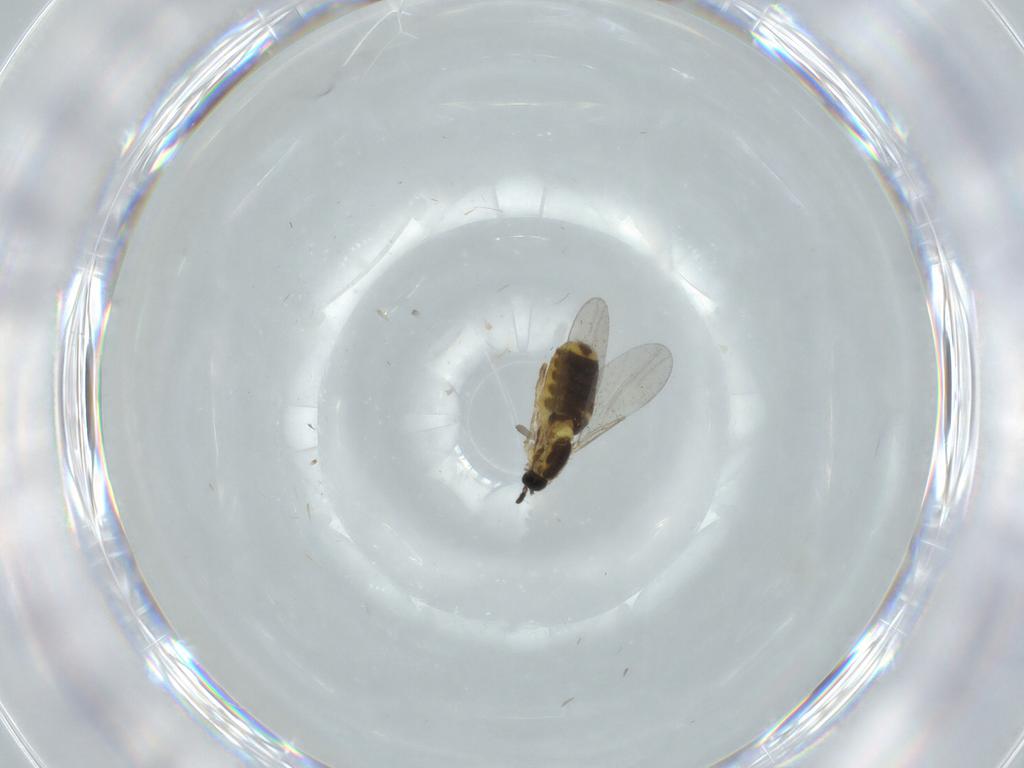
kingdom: Animalia
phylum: Arthropoda
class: Insecta
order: Diptera
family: Scatopsidae
